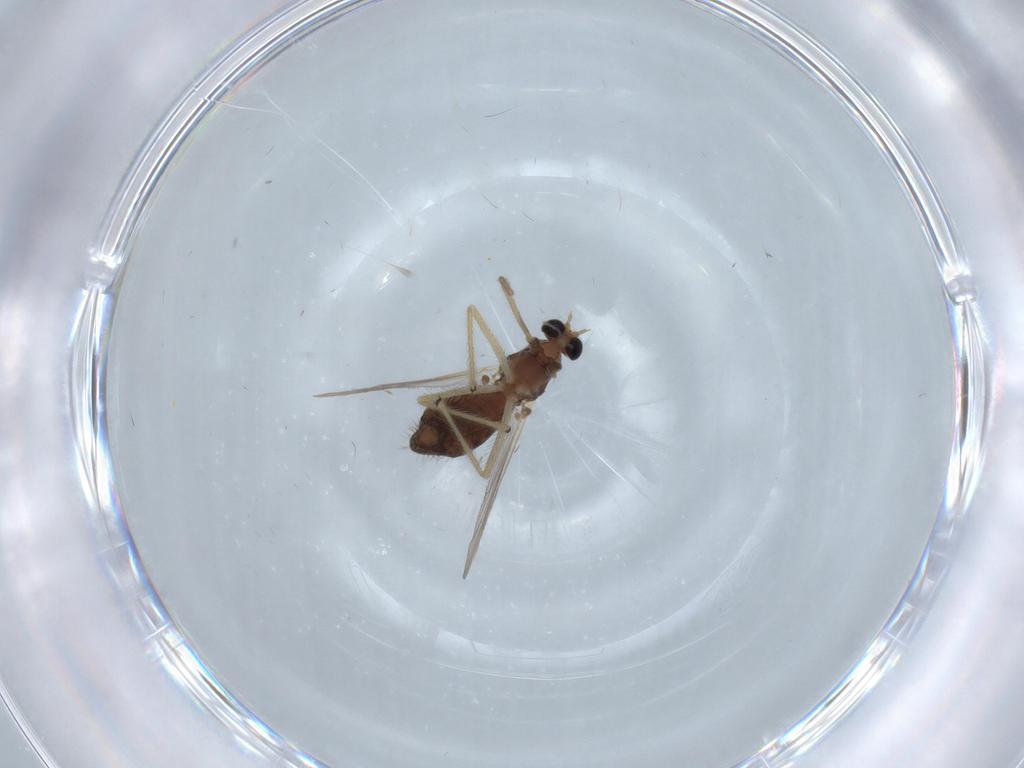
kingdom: Animalia
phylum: Arthropoda
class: Insecta
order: Diptera
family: Chironomidae
